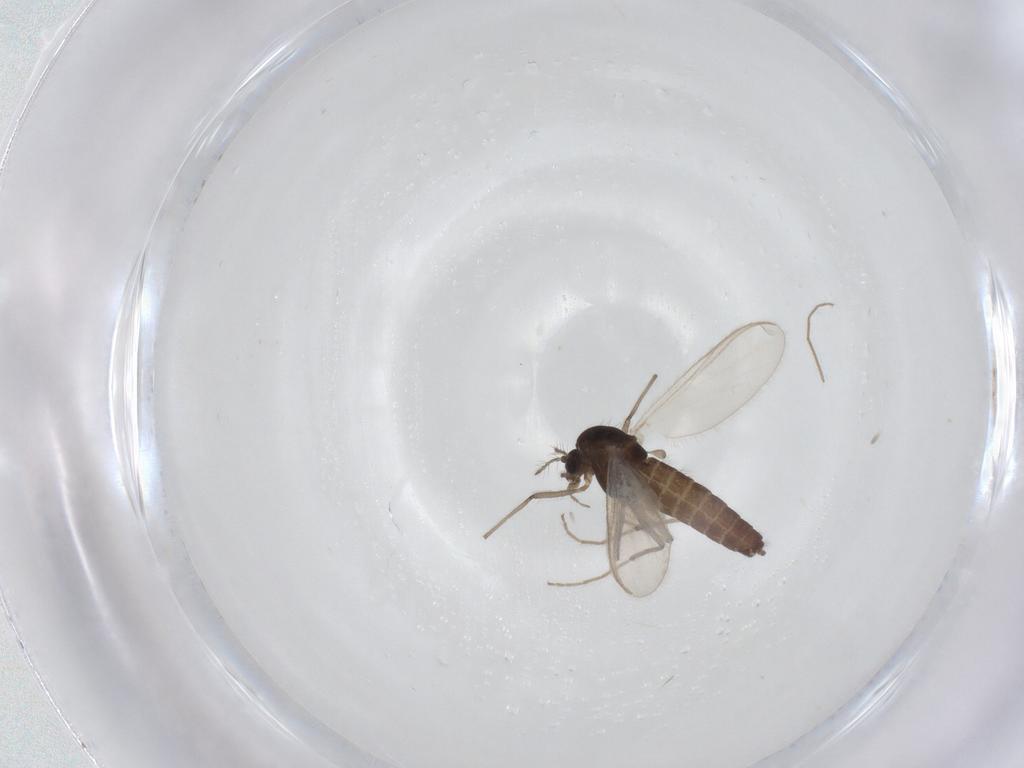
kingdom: Animalia
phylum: Arthropoda
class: Insecta
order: Diptera
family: Chironomidae
